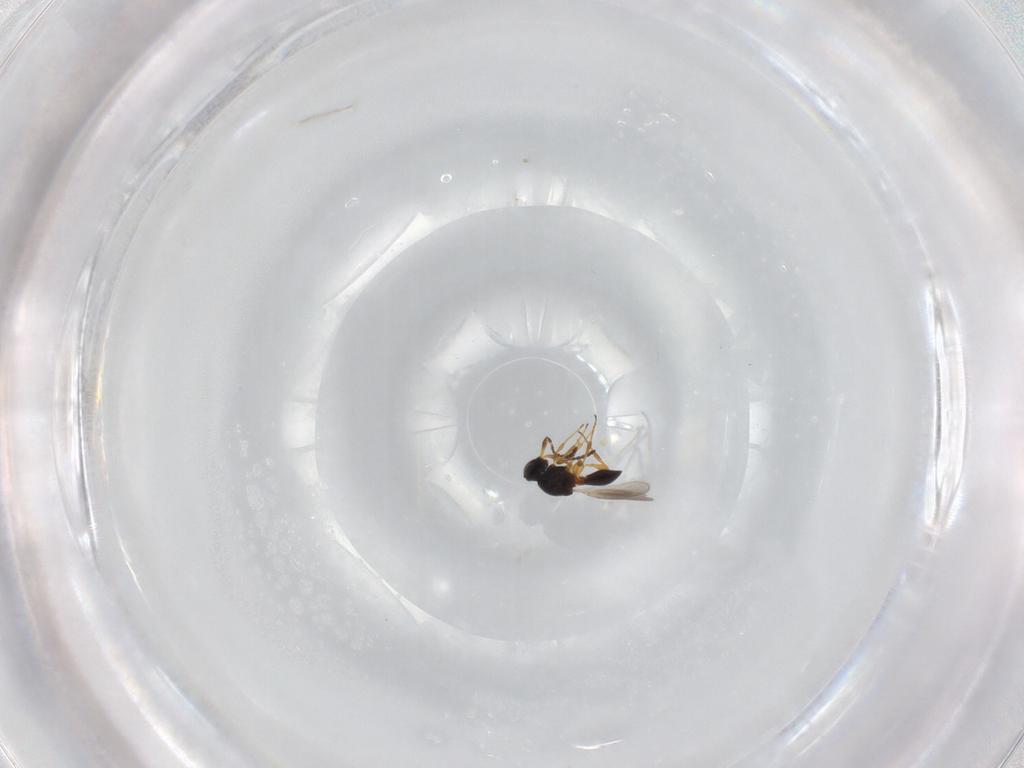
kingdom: Animalia
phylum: Arthropoda
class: Insecta
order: Hymenoptera
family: Platygastridae
